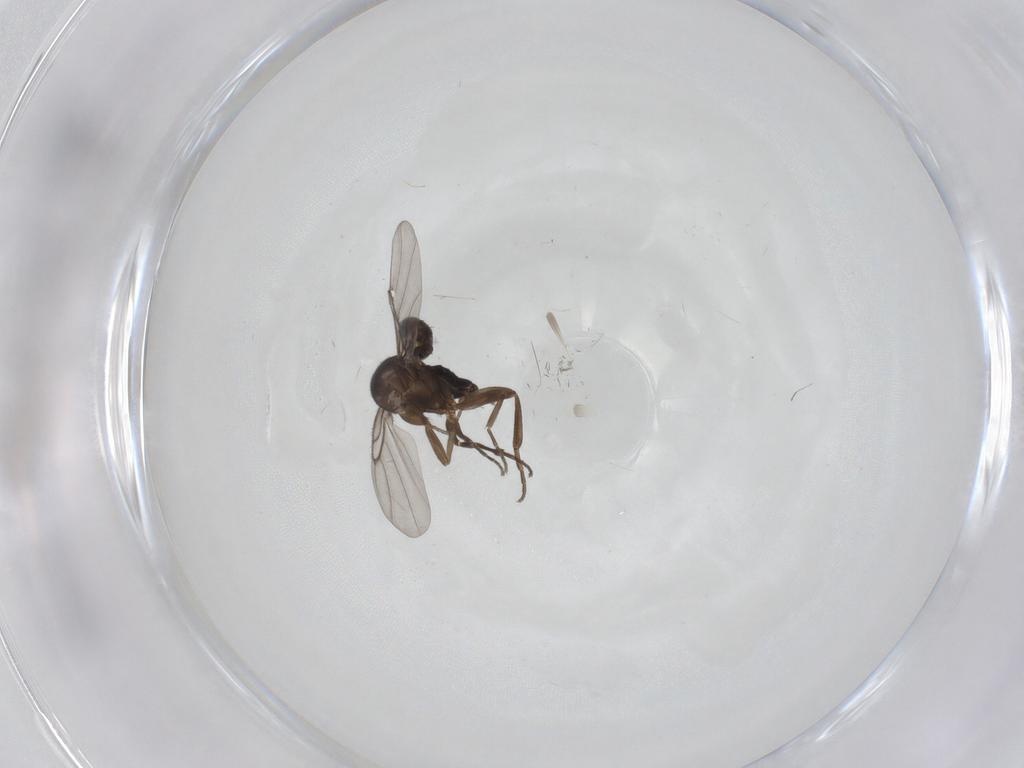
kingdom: Animalia
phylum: Arthropoda
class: Insecta
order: Diptera
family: Phoridae
